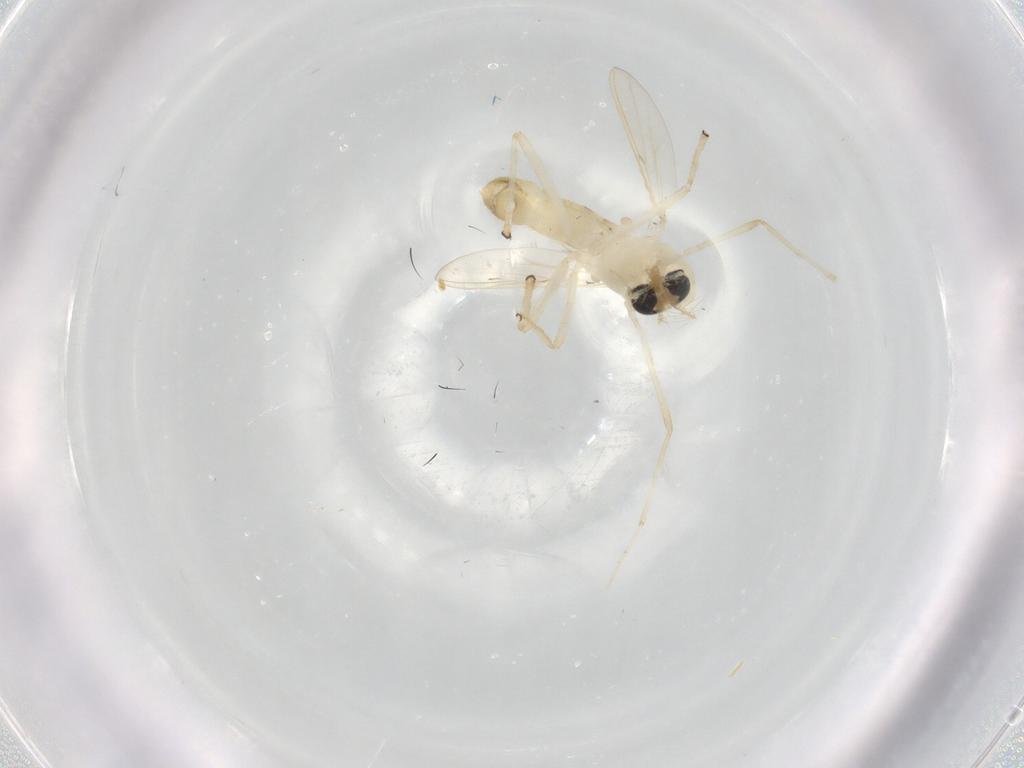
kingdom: Animalia
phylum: Arthropoda
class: Insecta
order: Diptera
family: Chironomidae
